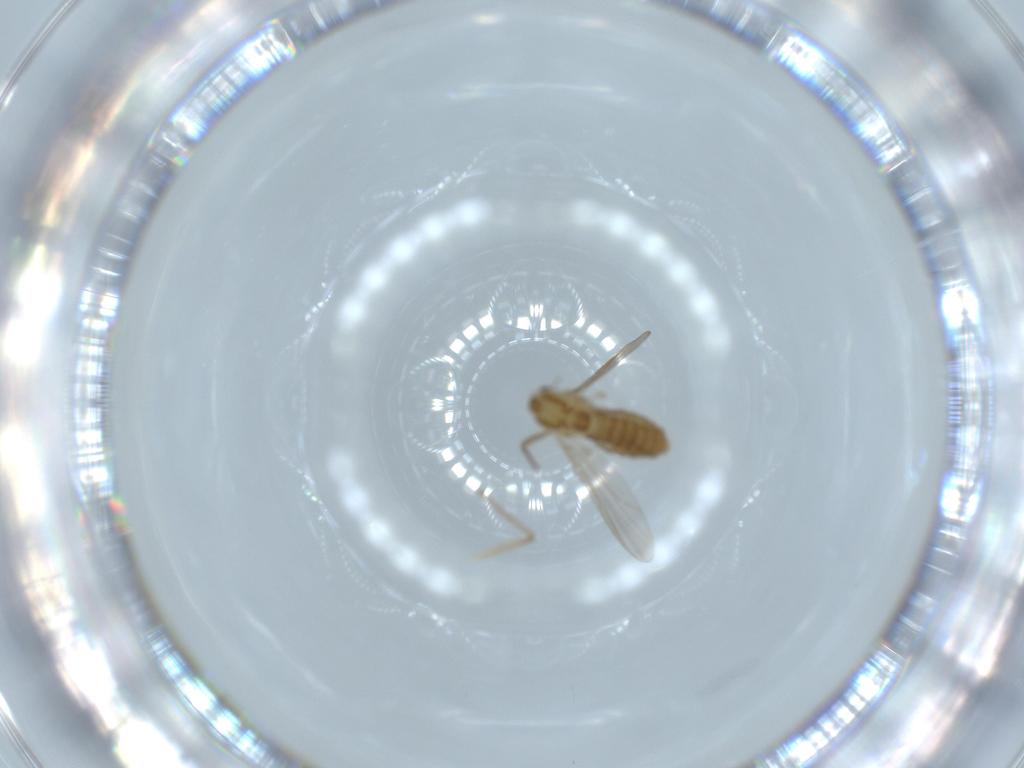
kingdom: Animalia
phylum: Arthropoda
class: Insecta
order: Diptera
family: Chironomidae
